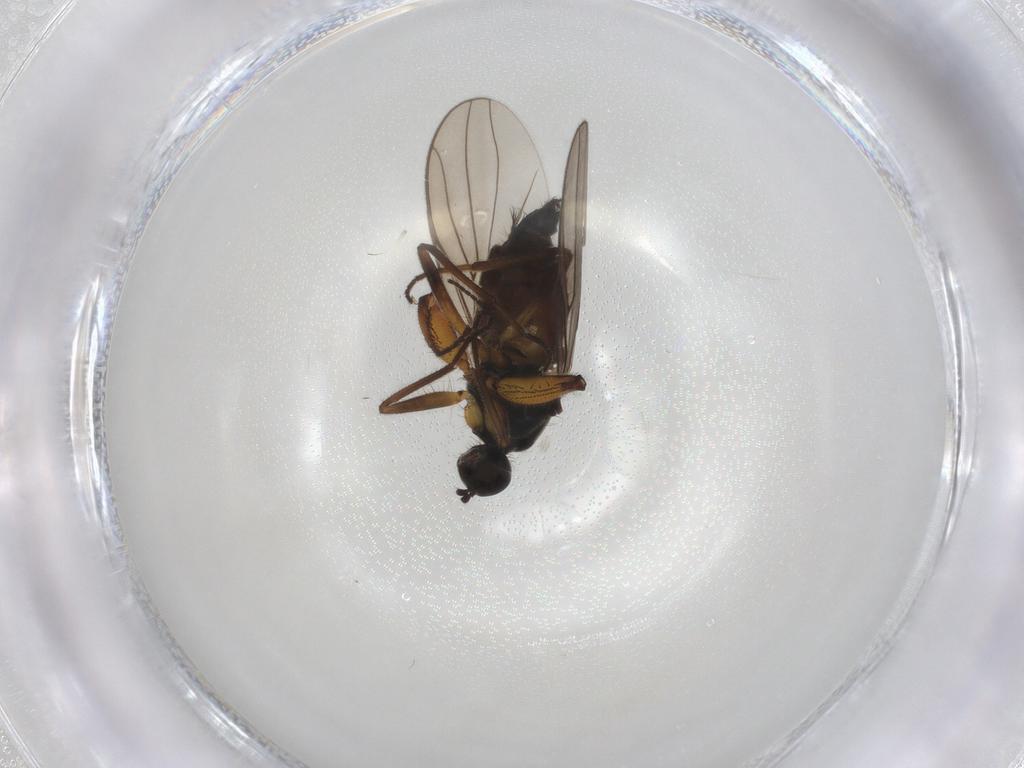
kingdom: Animalia
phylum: Arthropoda
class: Insecta
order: Diptera
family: Hybotidae
